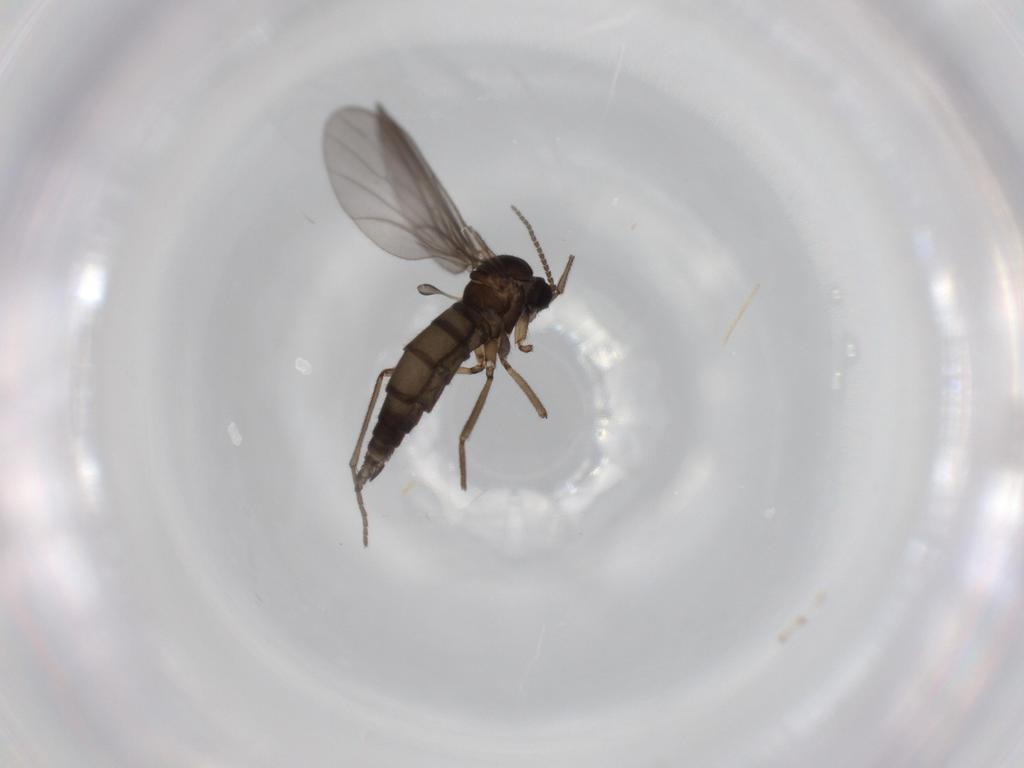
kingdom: Animalia
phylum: Arthropoda
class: Insecta
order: Diptera
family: Sciaridae
